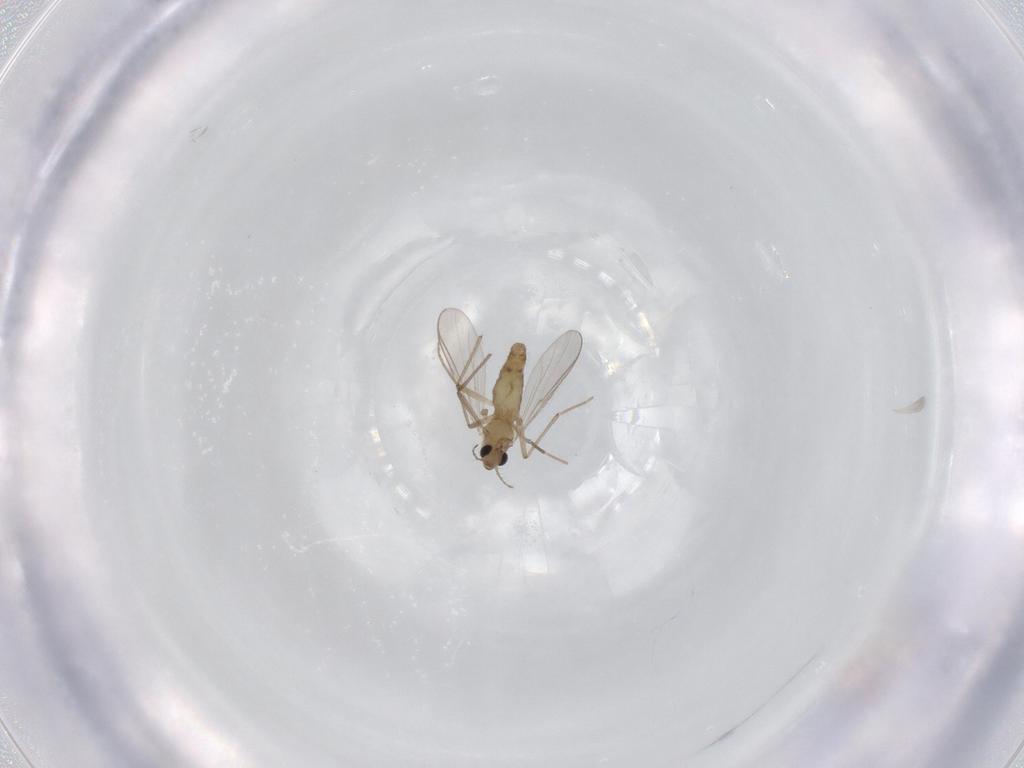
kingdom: Animalia
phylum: Arthropoda
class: Insecta
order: Diptera
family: Chironomidae
